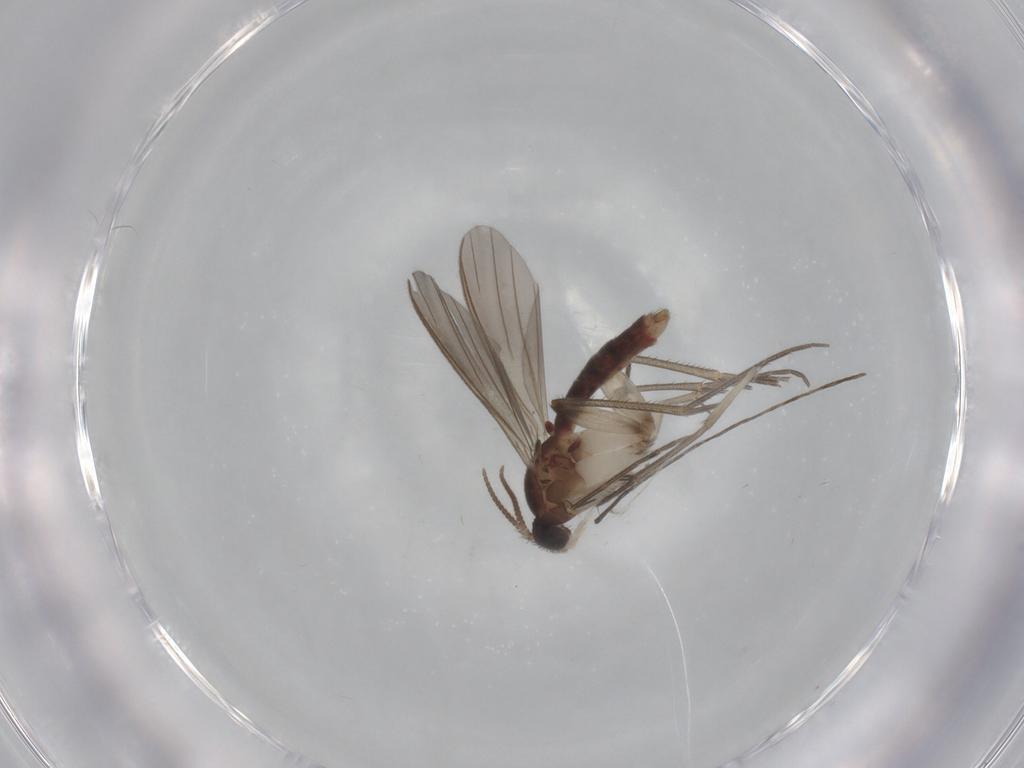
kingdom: Animalia
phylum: Arthropoda
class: Insecta
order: Diptera
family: Mycetophilidae
